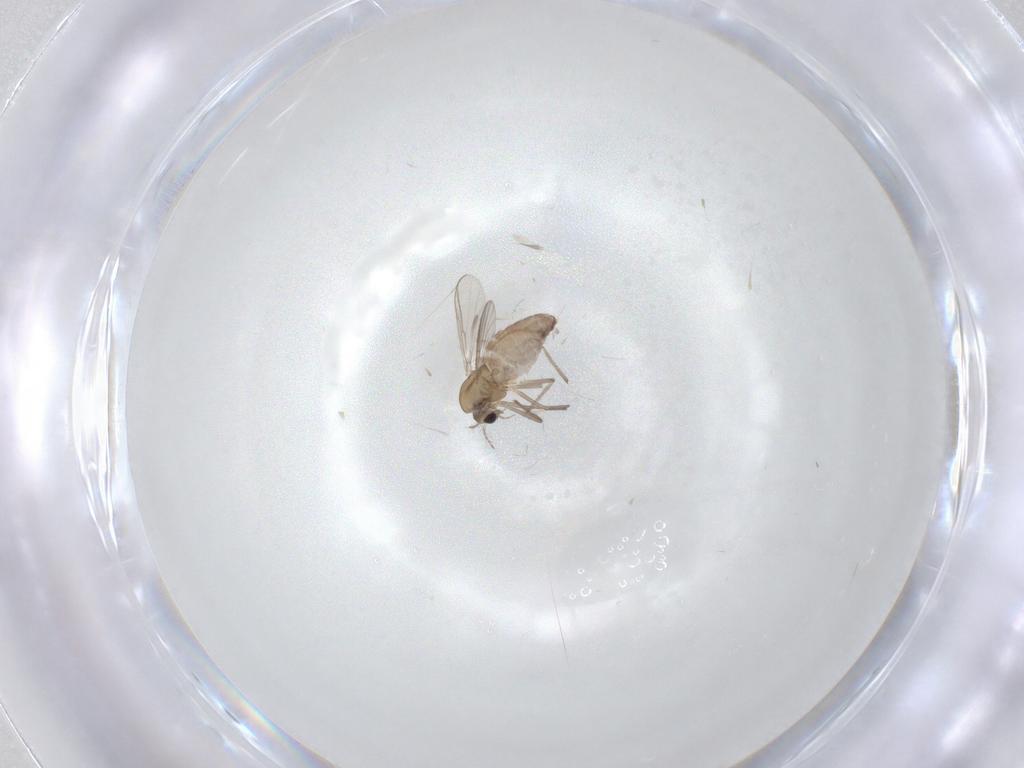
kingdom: Animalia
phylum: Arthropoda
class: Insecta
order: Diptera
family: Chironomidae
